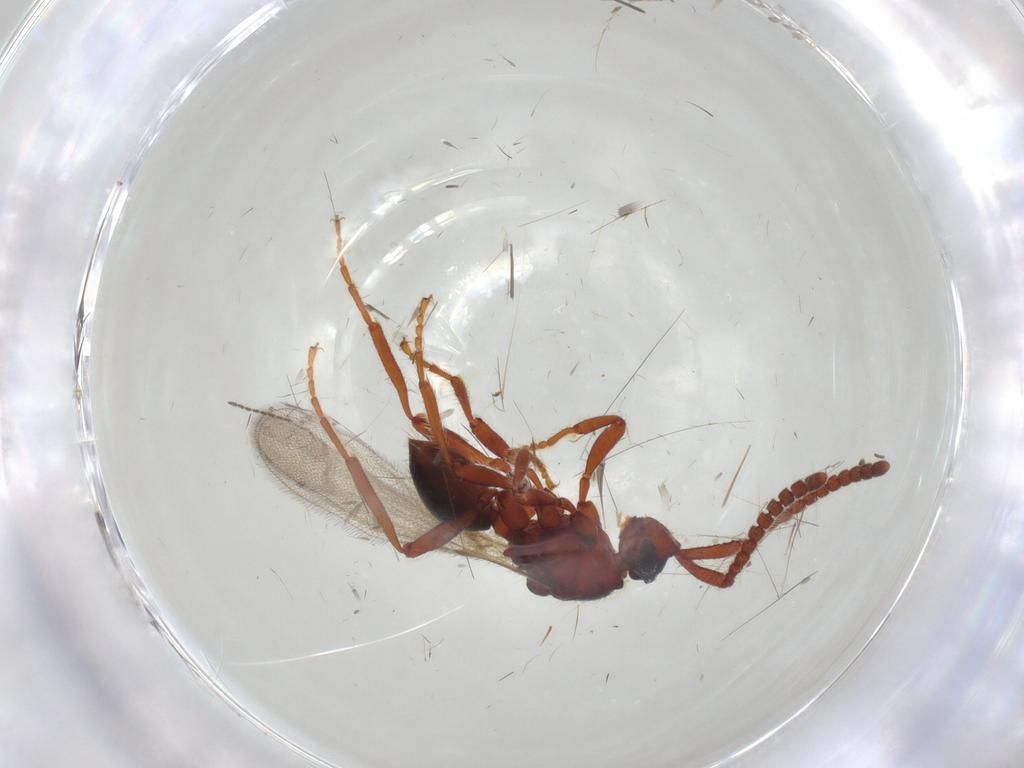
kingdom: Animalia
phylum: Arthropoda
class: Insecta
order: Hymenoptera
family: Diapriidae
